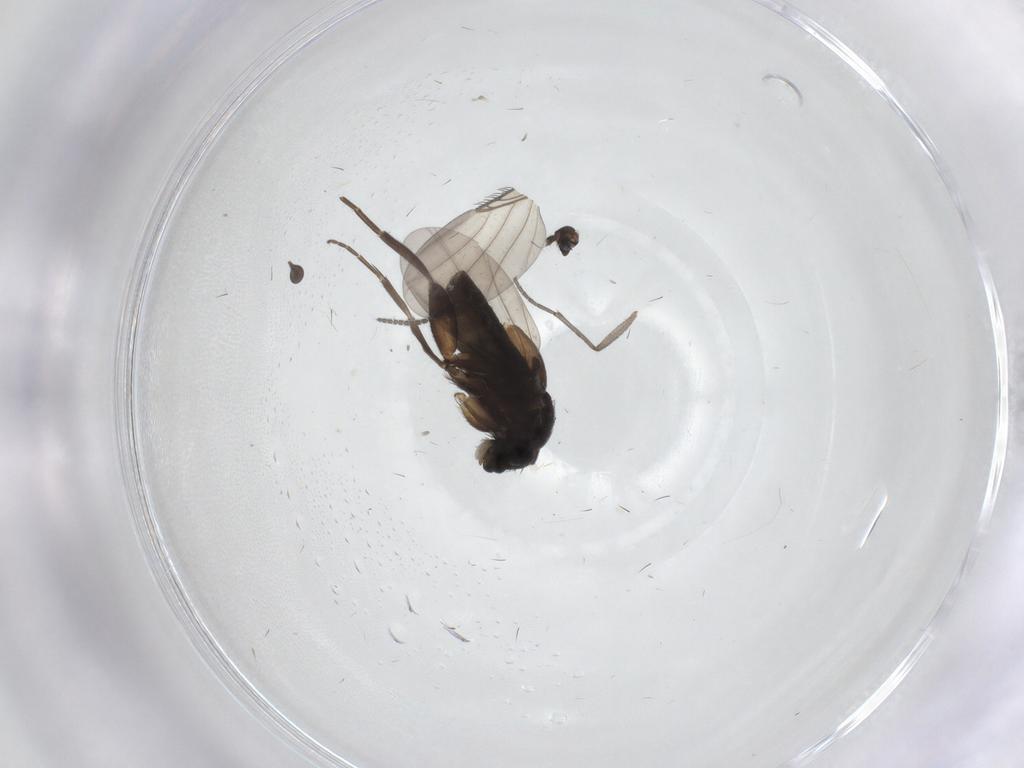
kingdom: Animalia
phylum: Arthropoda
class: Insecta
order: Diptera
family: Phoridae
